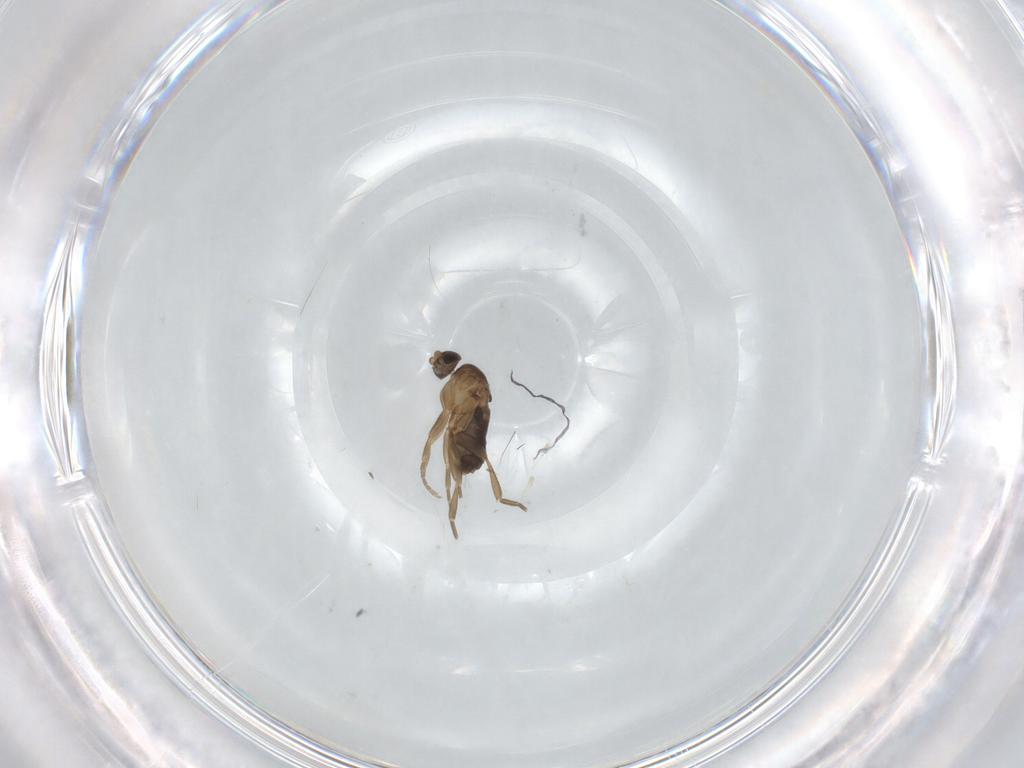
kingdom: Animalia
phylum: Arthropoda
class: Insecta
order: Diptera
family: Phoridae
